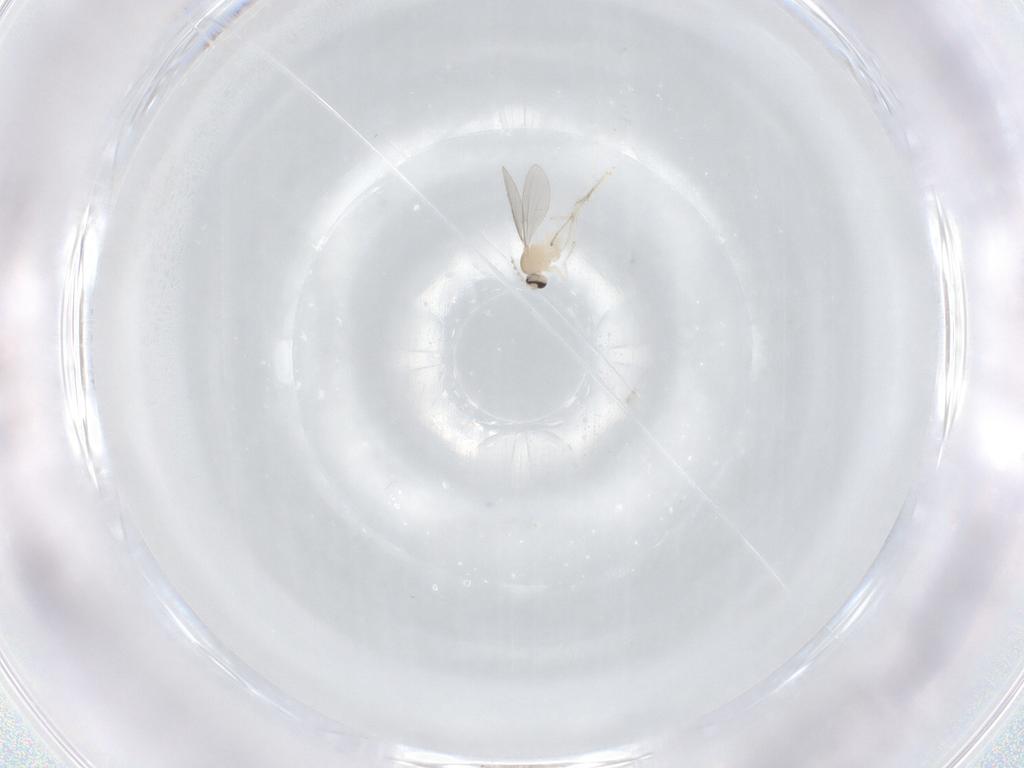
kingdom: Animalia
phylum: Arthropoda
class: Insecta
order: Diptera
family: Cecidomyiidae
